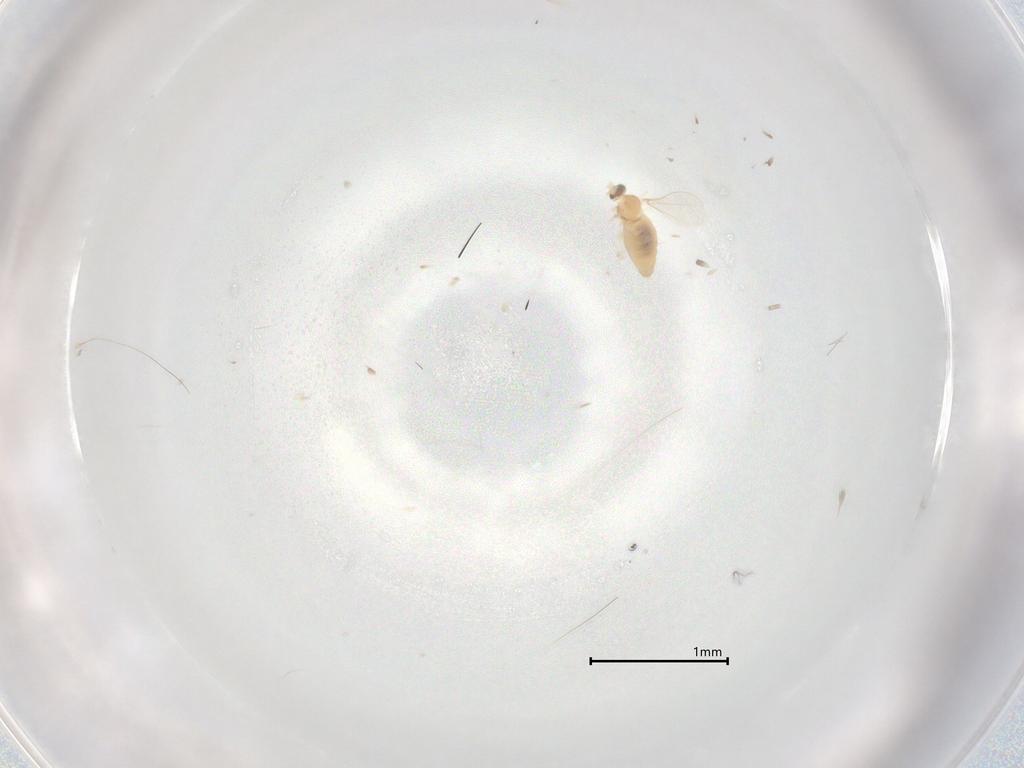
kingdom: Animalia
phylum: Arthropoda
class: Insecta
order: Diptera
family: Cecidomyiidae
